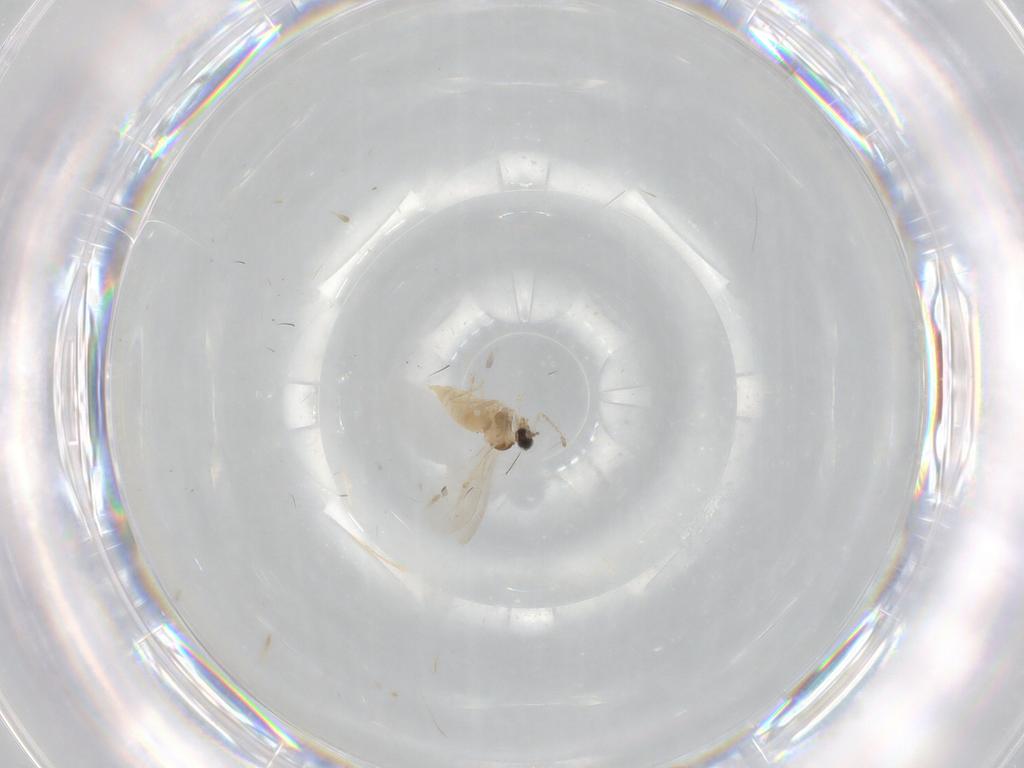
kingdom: Animalia
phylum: Arthropoda
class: Insecta
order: Diptera
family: Cecidomyiidae
